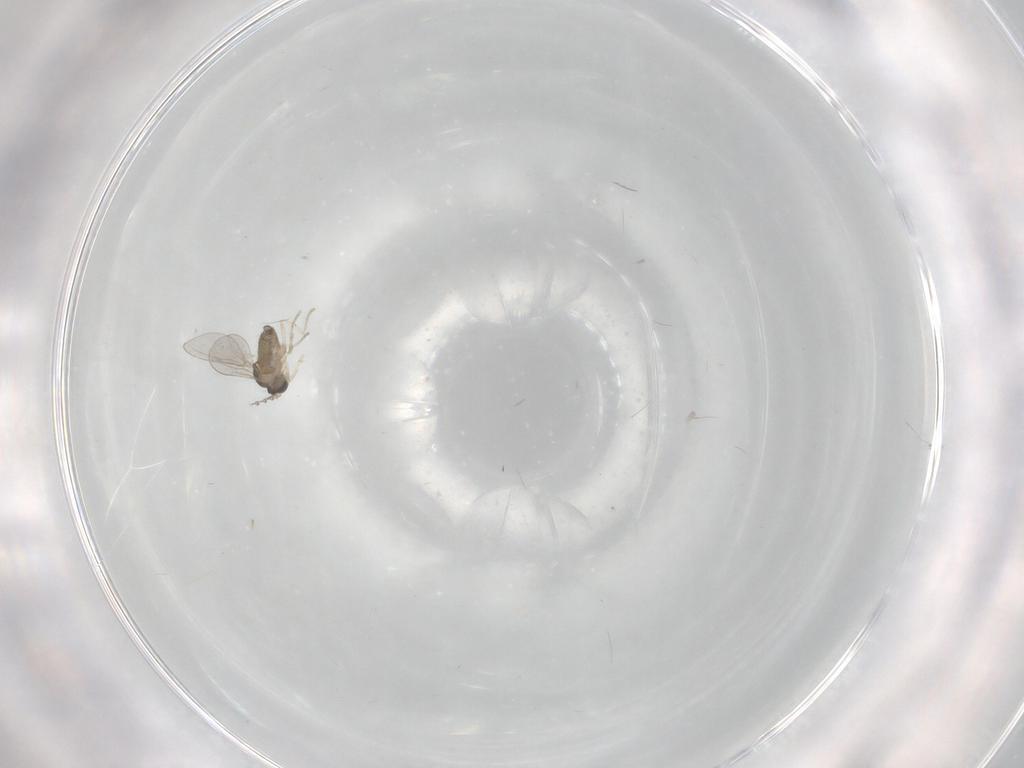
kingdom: Animalia
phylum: Arthropoda
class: Insecta
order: Diptera
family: Cecidomyiidae
